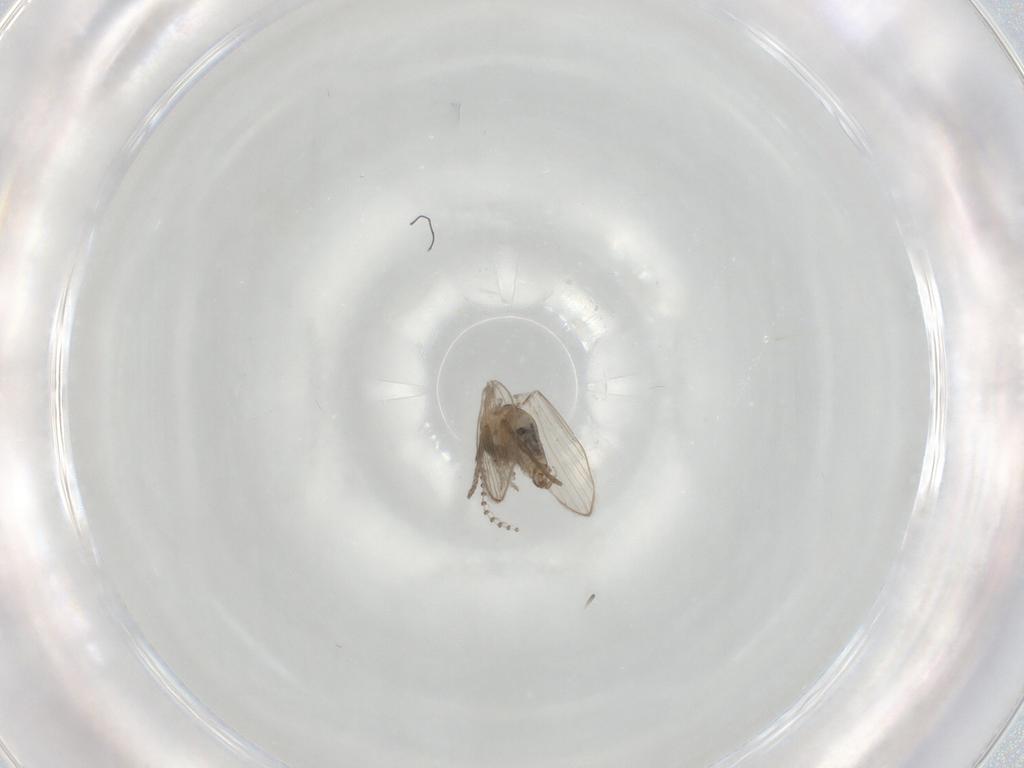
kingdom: Animalia
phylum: Arthropoda
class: Insecta
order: Diptera
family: Psychodidae
